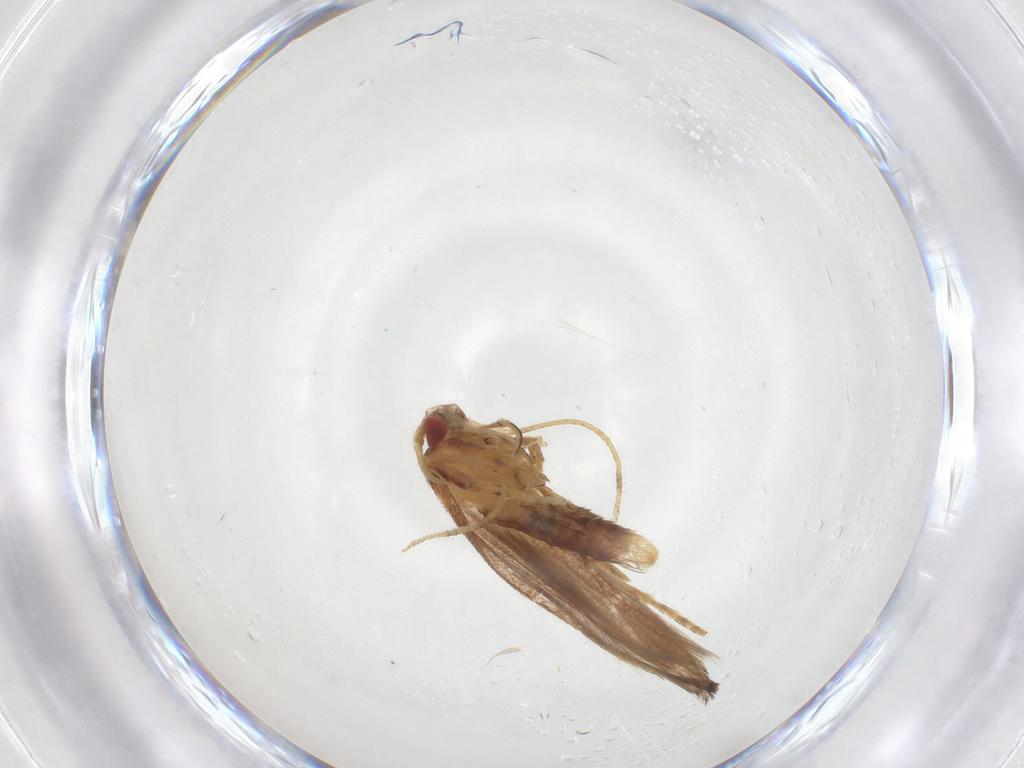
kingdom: Animalia
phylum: Arthropoda
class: Insecta
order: Lepidoptera
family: Cosmopterigidae
